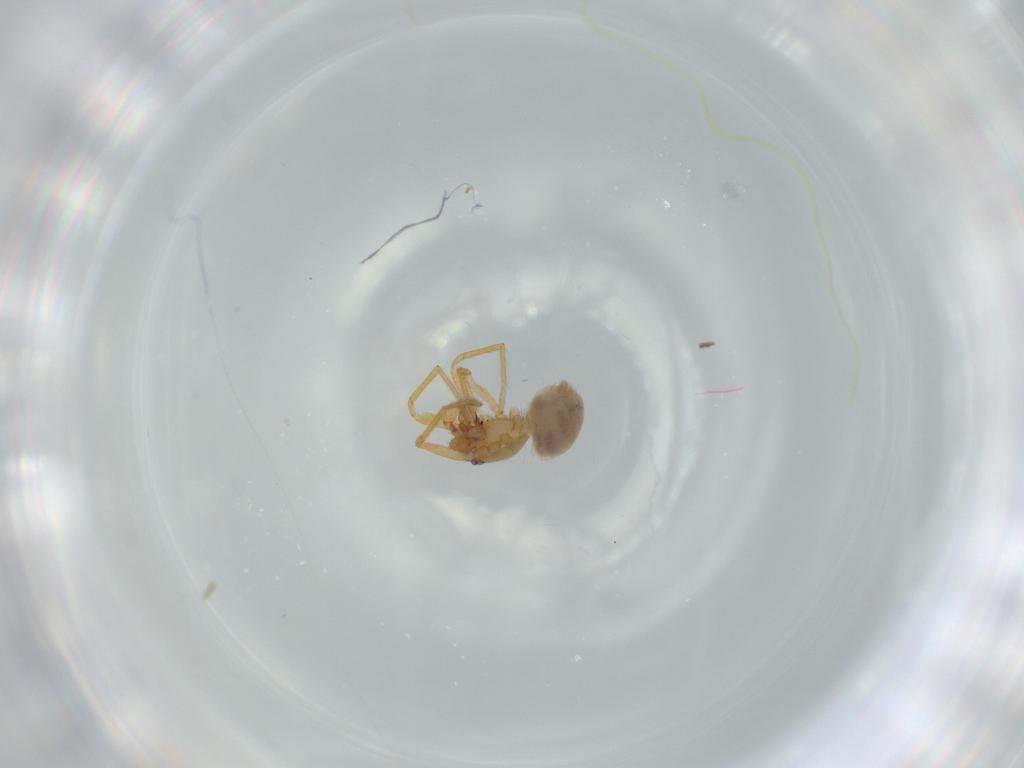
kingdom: Animalia
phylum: Arthropoda
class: Arachnida
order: Araneae
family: Oonopidae
